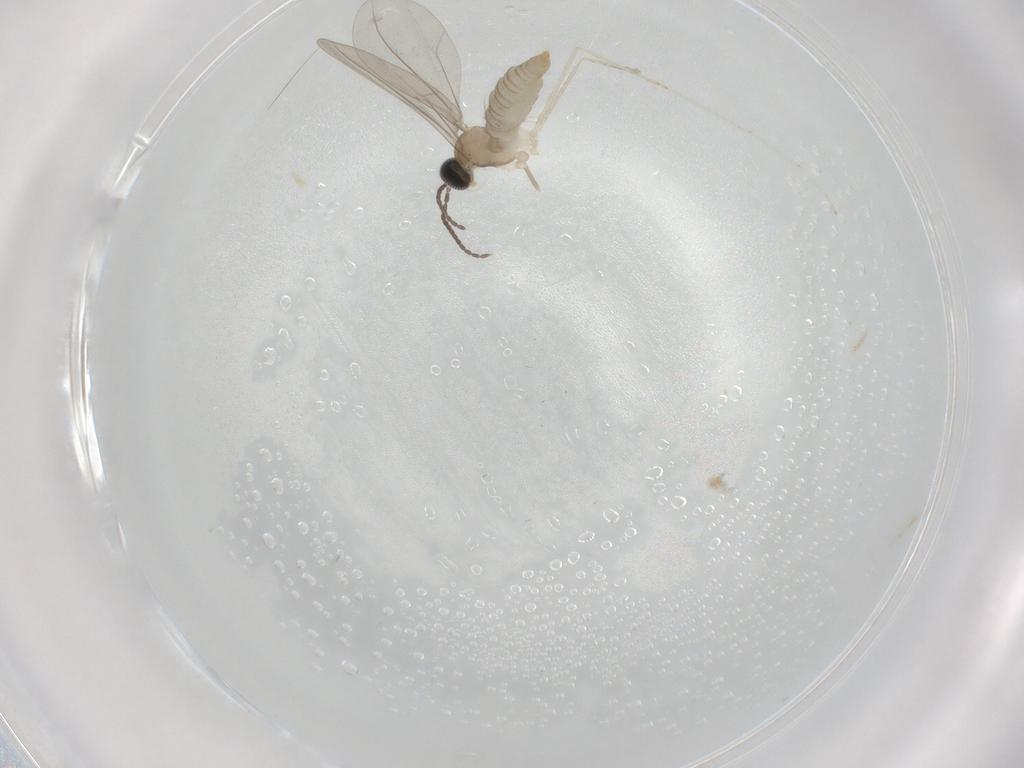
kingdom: Animalia
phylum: Arthropoda
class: Insecta
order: Diptera
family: Cecidomyiidae
